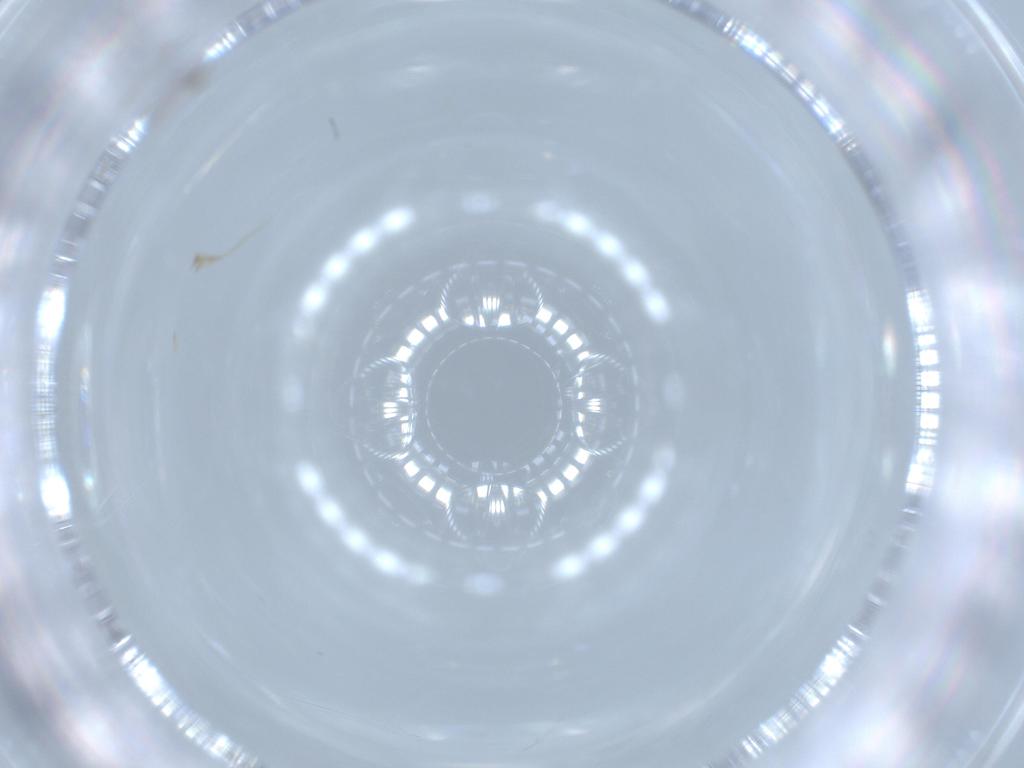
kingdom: Animalia
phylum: Arthropoda
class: Insecta
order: Diptera
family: Cecidomyiidae
